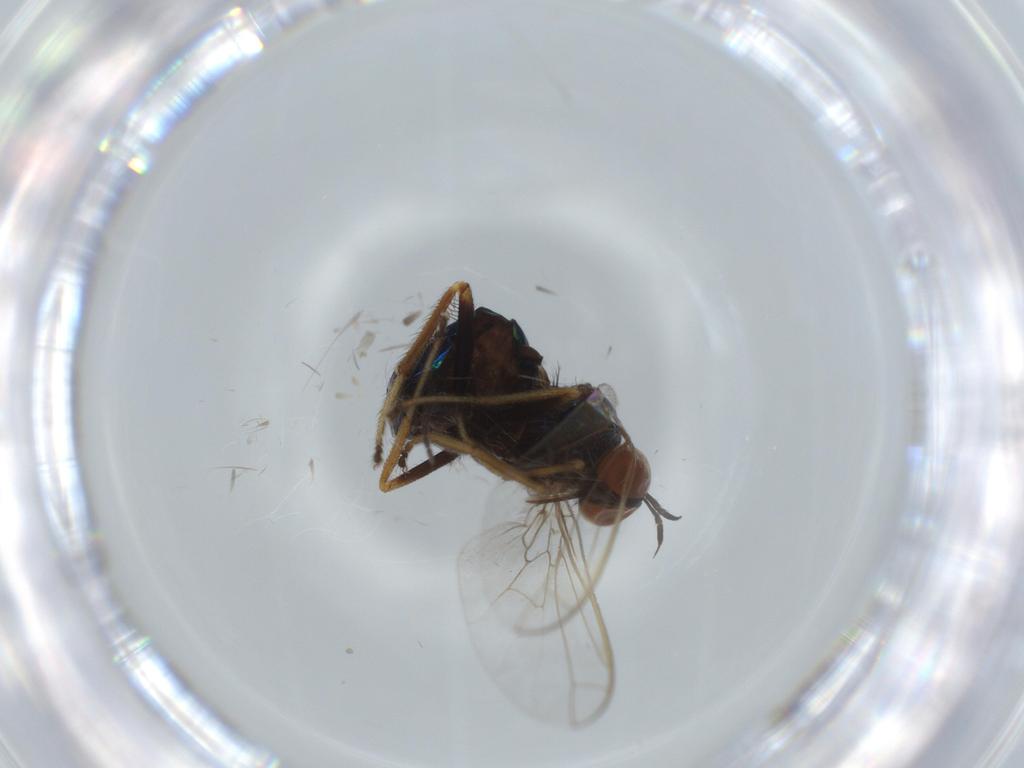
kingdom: Animalia
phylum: Arthropoda
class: Insecta
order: Diptera
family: Empididae
